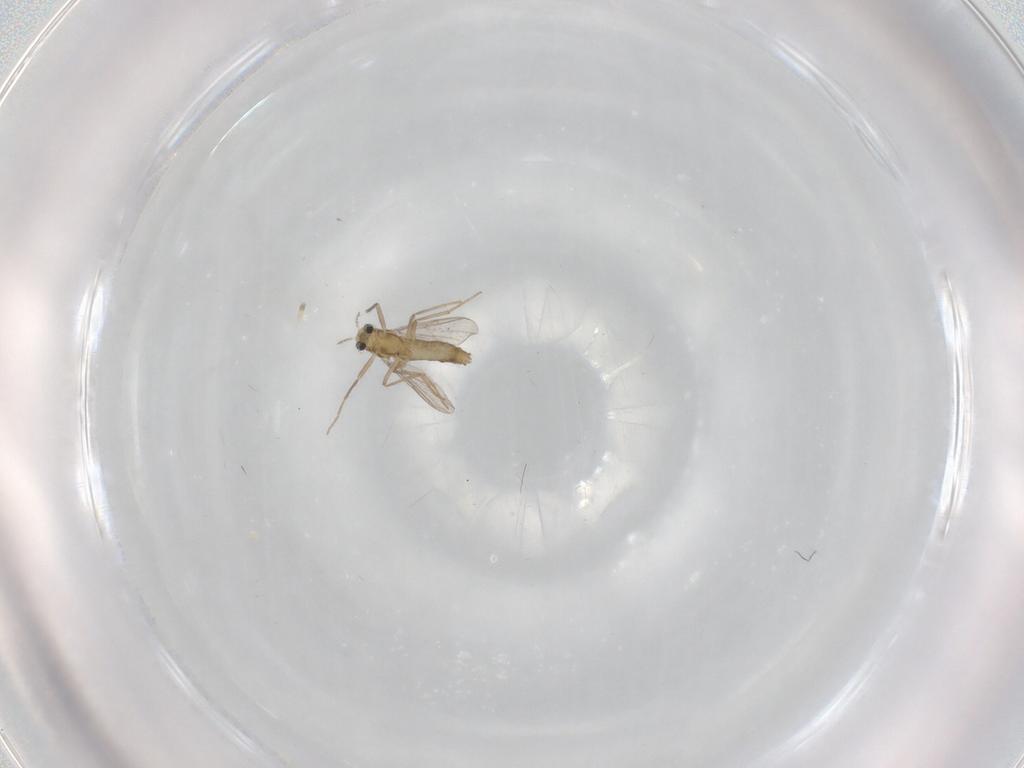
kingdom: Animalia
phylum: Arthropoda
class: Insecta
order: Diptera
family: Chironomidae
